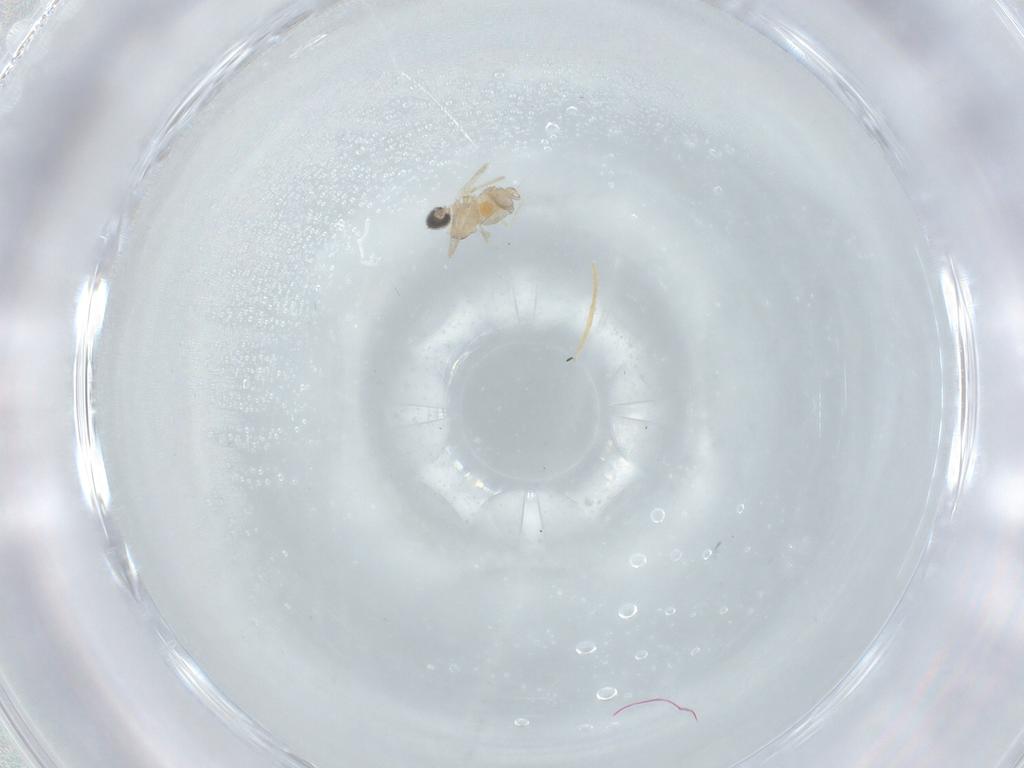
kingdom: Animalia
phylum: Arthropoda
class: Insecta
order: Diptera
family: Cecidomyiidae
